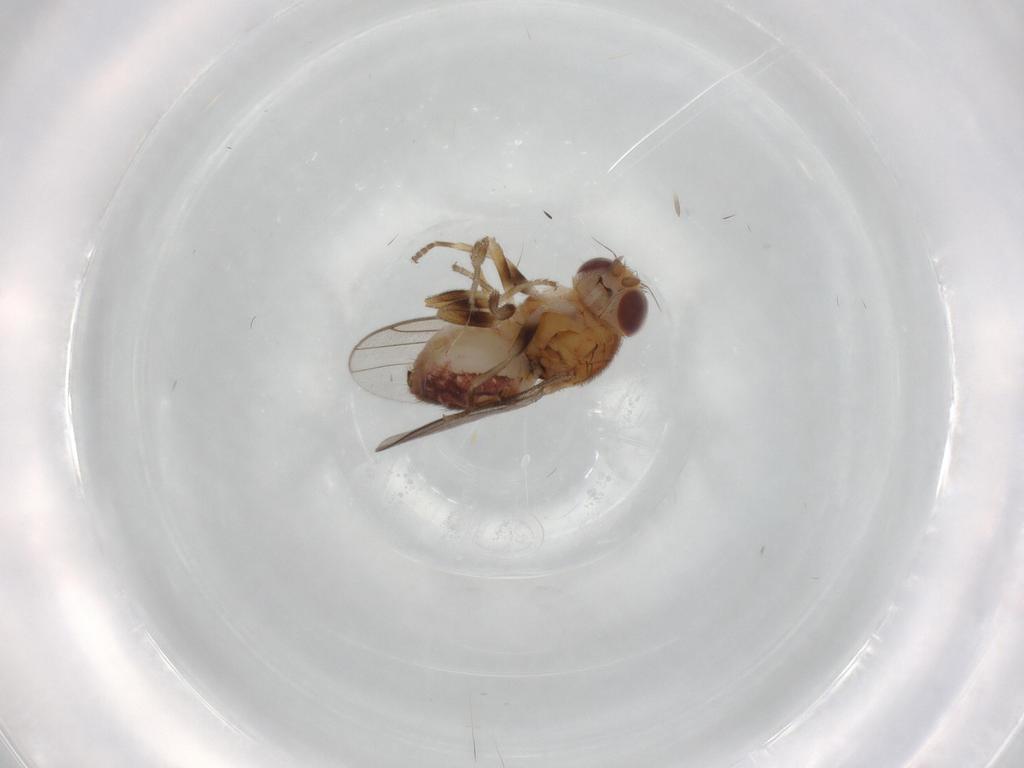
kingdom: Animalia
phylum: Arthropoda
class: Insecta
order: Diptera
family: Chloropidae
